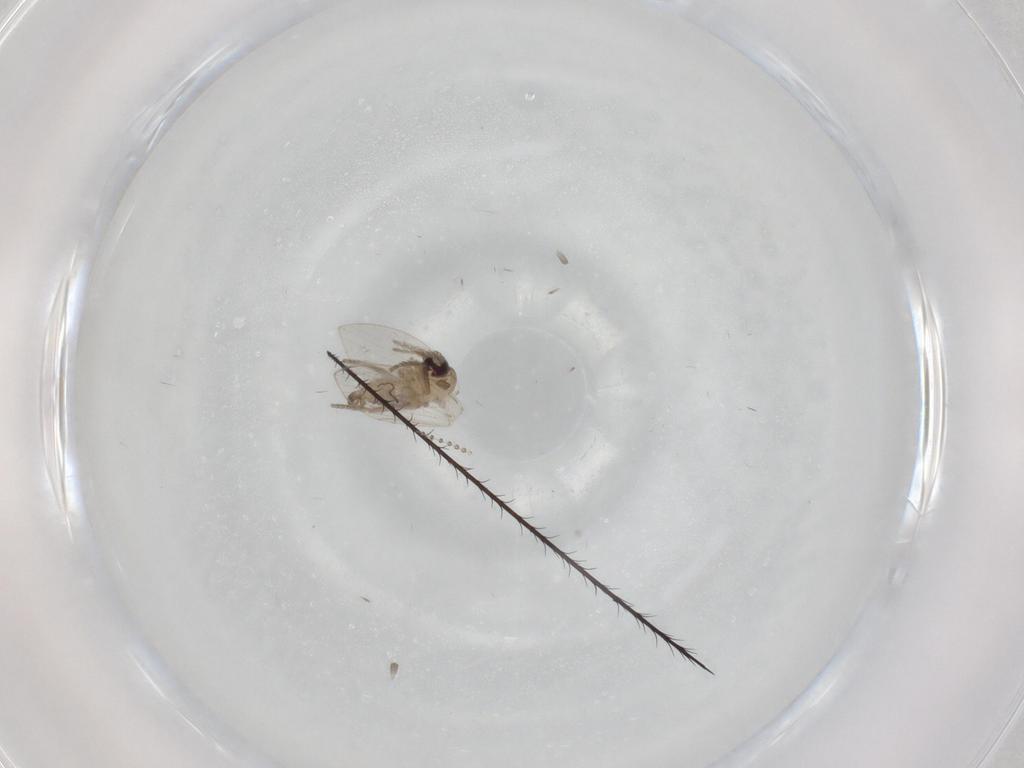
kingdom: Animalia
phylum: Arthropoda
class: Insecta
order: Diptera
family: Psychodidae
